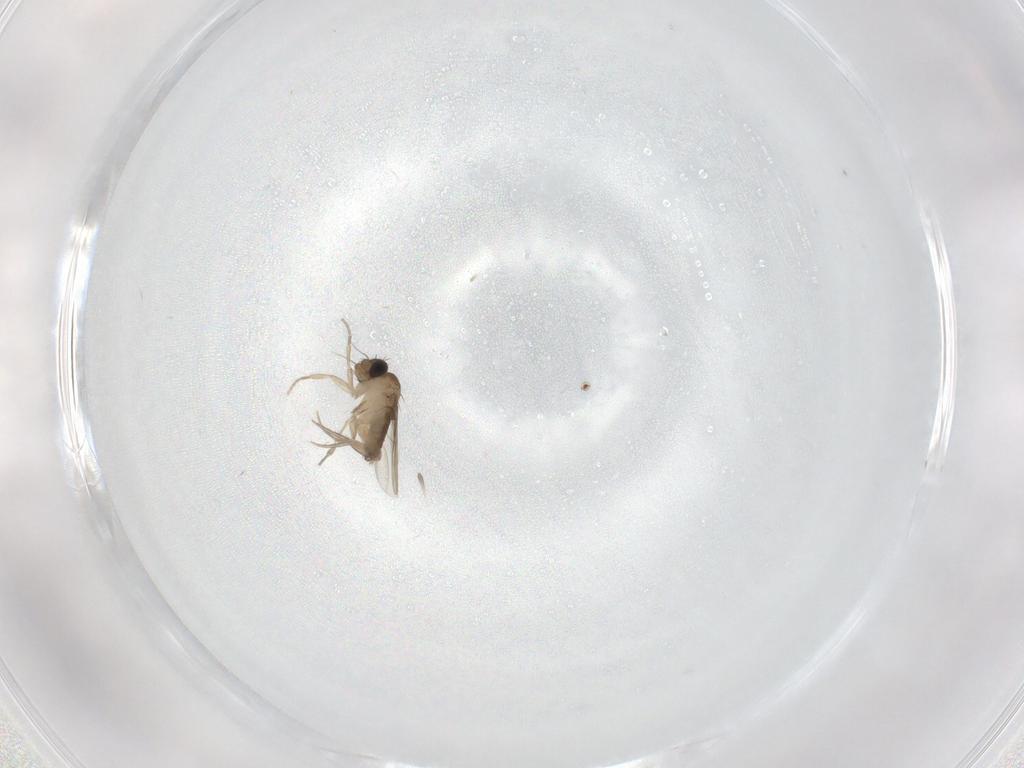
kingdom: Animalia
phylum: Arthropoda
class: Insecta
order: Diptera
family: Phoridae
